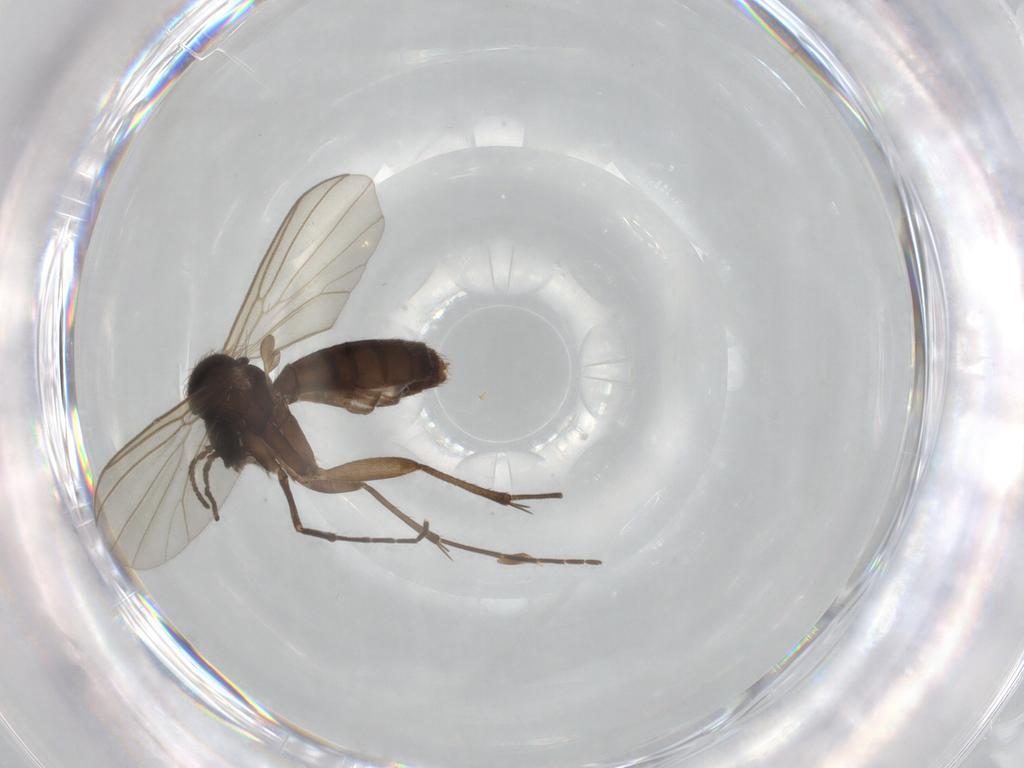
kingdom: Animalia
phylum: Arthropoda
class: Insecta
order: Diptera
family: Mycetophilidae
